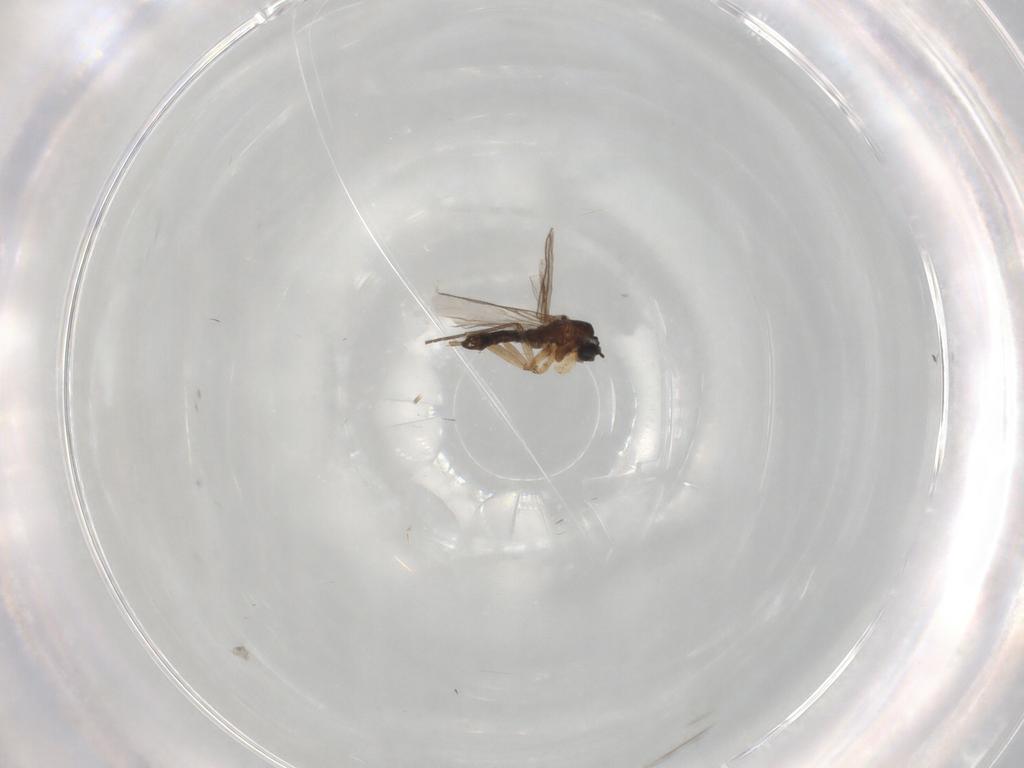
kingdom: Animalia
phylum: Arthropoda
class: Insecta
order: Diptera
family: Sciaridae
